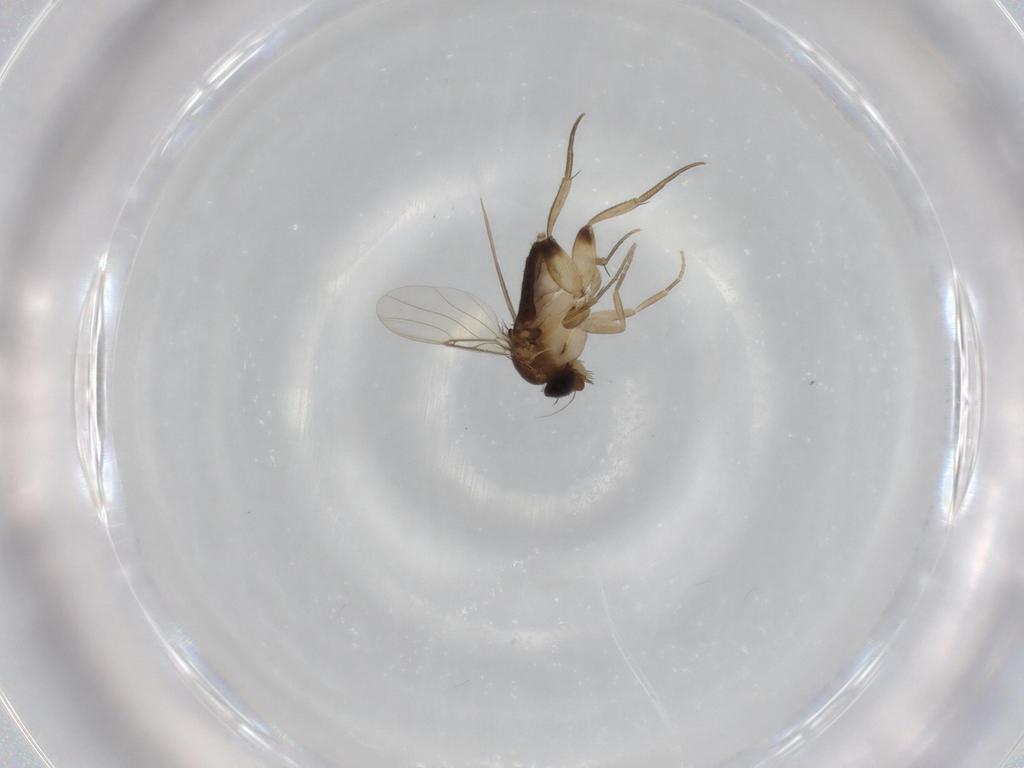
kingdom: Animalia
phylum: Arthropoda
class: Insecta
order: Diptera
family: Phoridae
